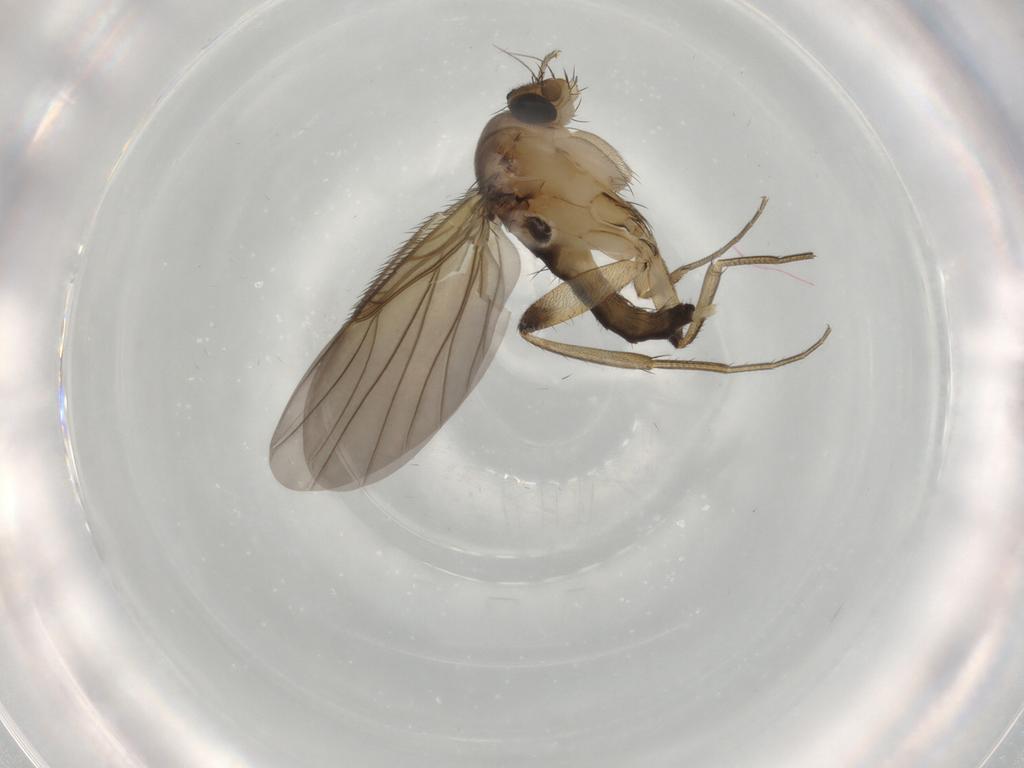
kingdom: Animalia
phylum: Arthropoda
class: Insecta
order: Diptera
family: Phoridae
